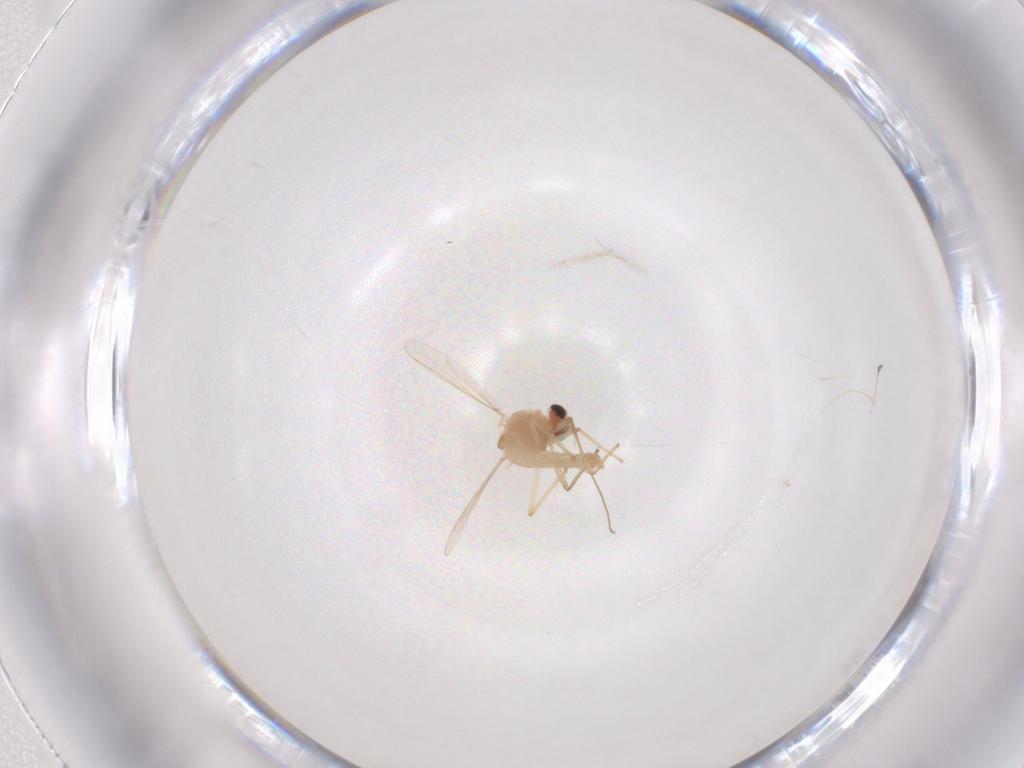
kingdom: Animalia
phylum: Arthropoda
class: Insecta
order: Diptera
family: Chironomidae
